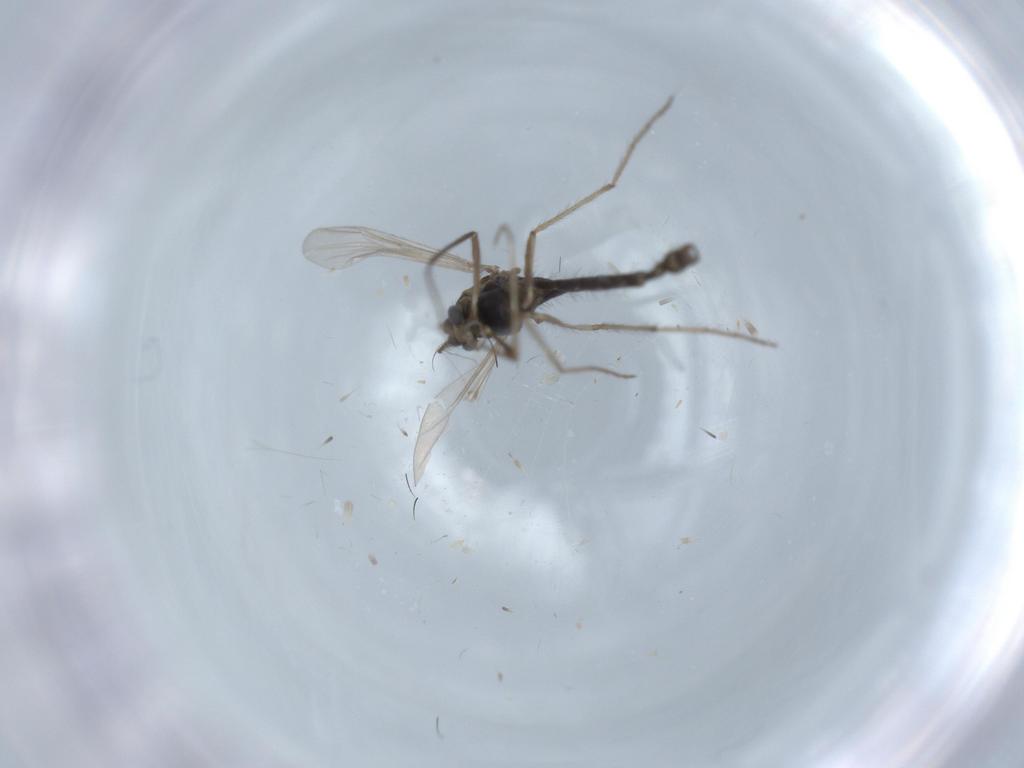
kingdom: Animalia
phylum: Arthropoda
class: Insecta
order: Diptera
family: Chironomidae
